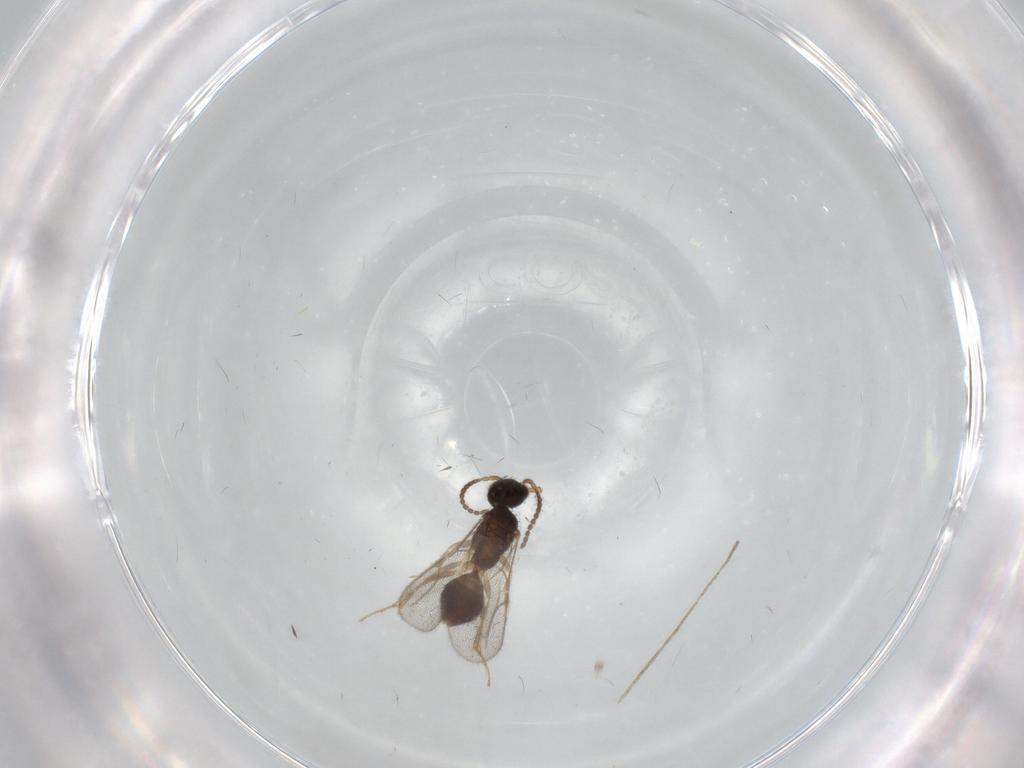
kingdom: Animalia
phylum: Arthropoda
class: Insecta
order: Hymenoptera
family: Bethylidae
